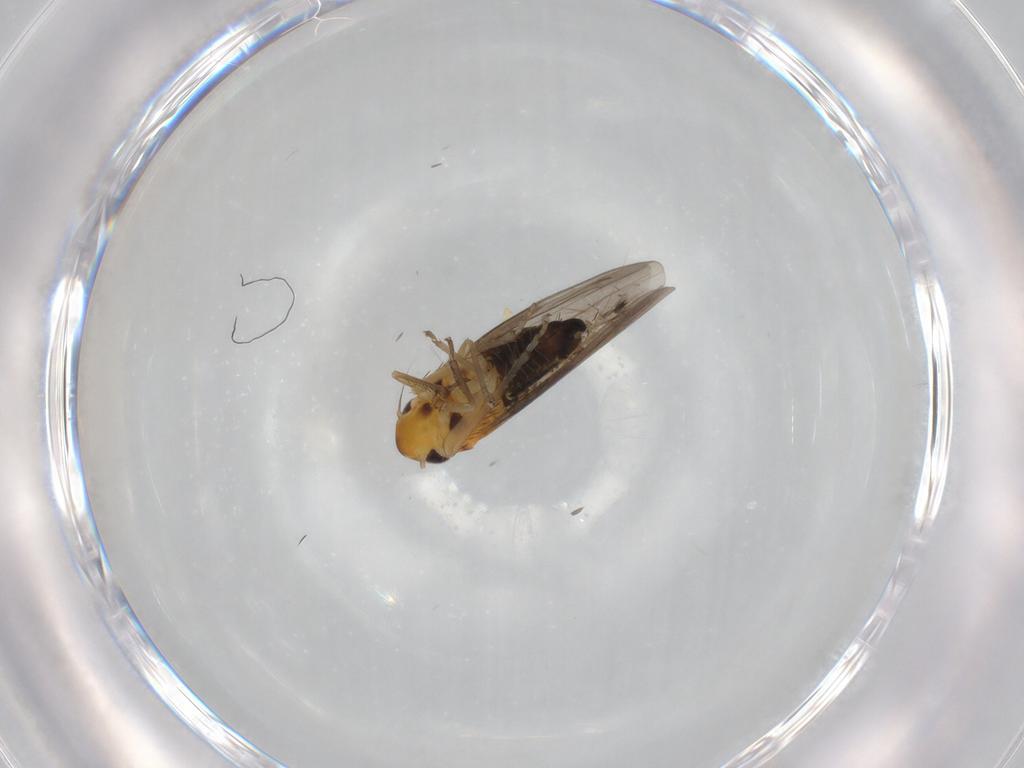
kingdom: Animalia
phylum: Arthropoda
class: Insecta
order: Hemiptera
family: Cicadellidae
